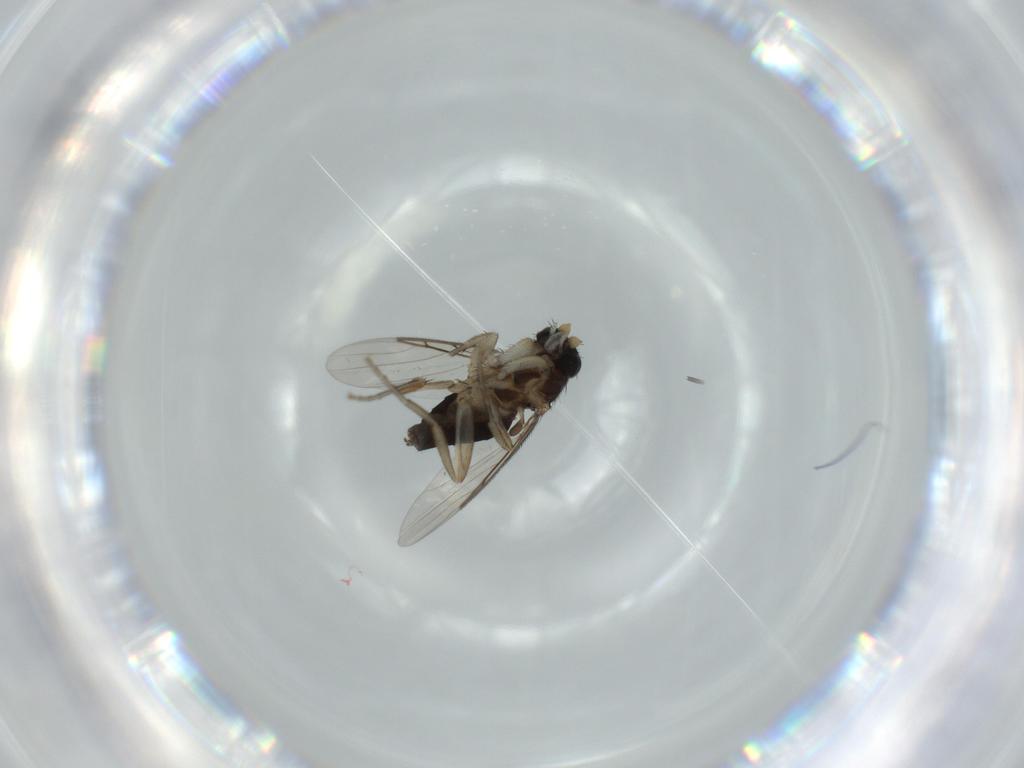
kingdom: Animalia
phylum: Arthropoda
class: Insecta
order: Diptera
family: Phoridae
